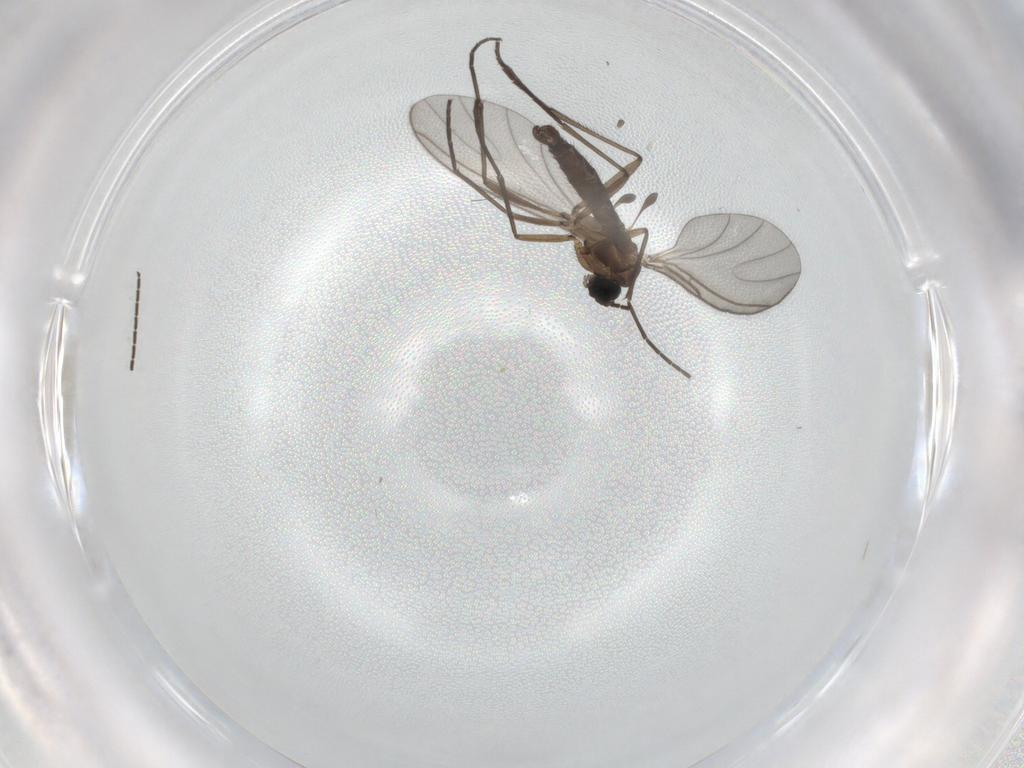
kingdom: Animalia
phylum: Arthropoda
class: Insecta
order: Diptera
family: Sciaridae
